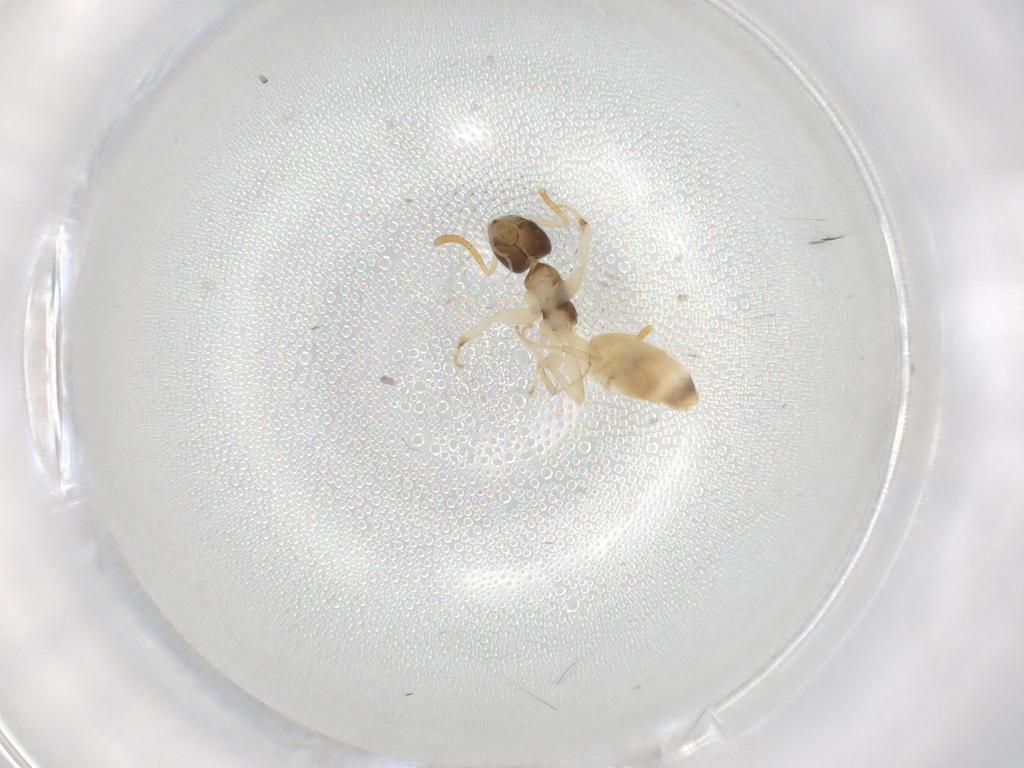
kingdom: Animalia
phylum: Arthropoda
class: Insecta
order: Hymenoptera
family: Formicidae
